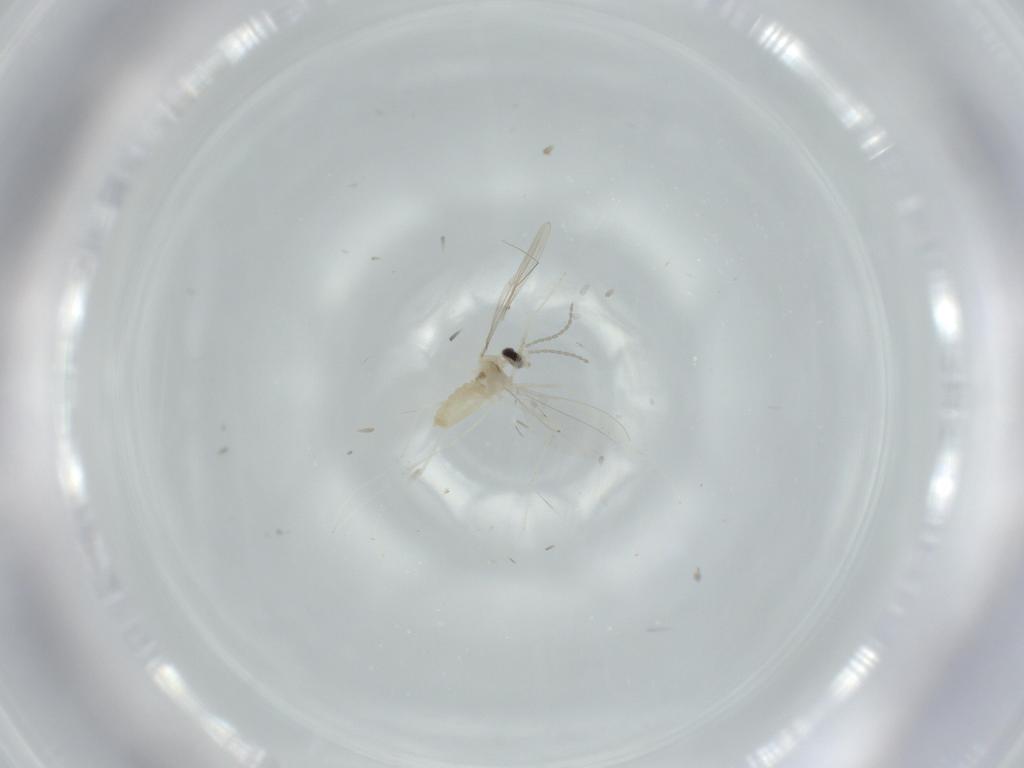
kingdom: Animalia
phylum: Arthropoda
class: Insecta
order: Diptera
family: Cecidomyiidae
